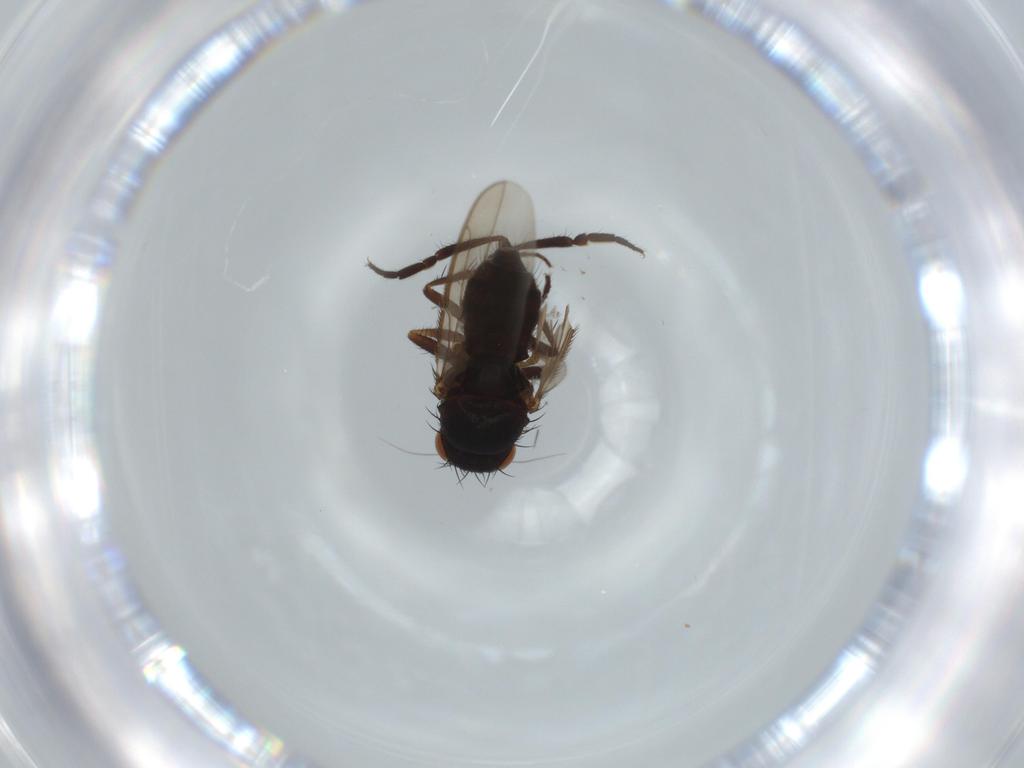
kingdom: Animalia
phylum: Arthropoda
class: Insecta
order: Diptera
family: Sphaeroceridae
